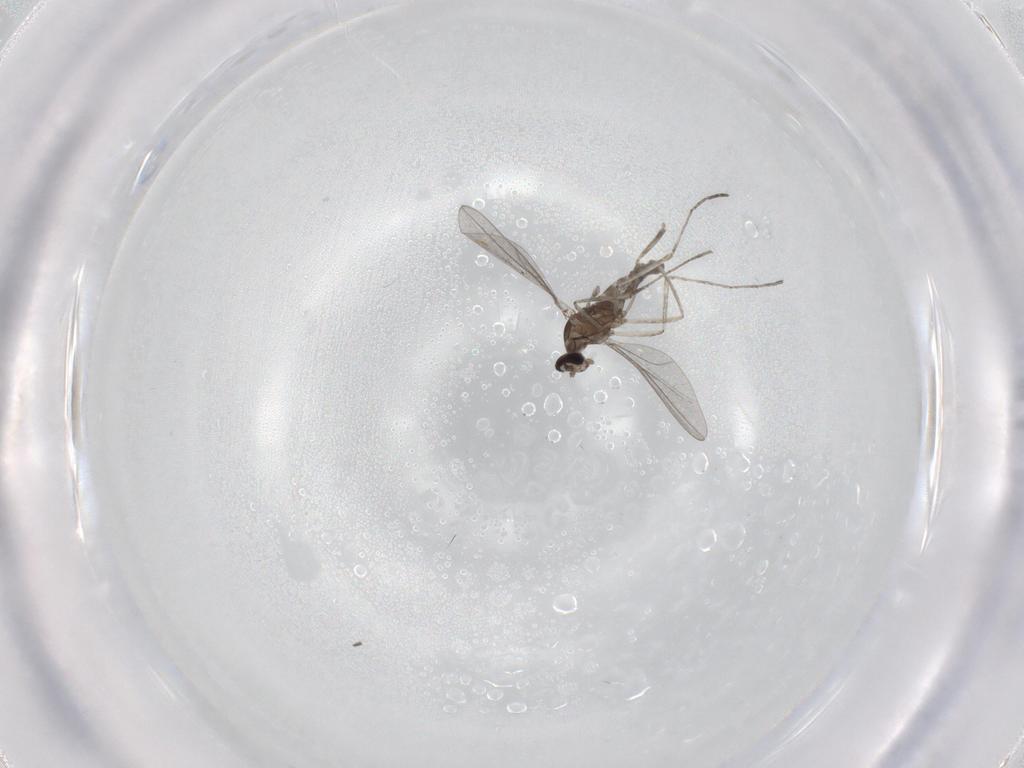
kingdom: Animalia
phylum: Arthropoda
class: Insecta
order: Diptera
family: Cecidomyiidae
